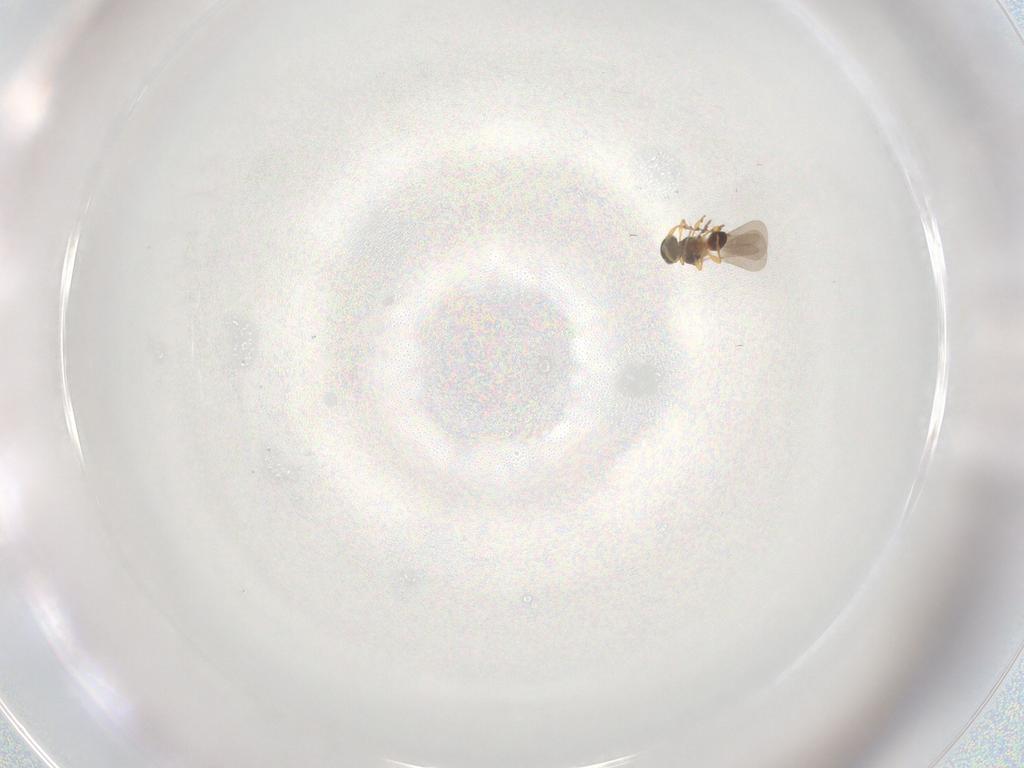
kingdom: Animalia
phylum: Arthropoda
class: Insecta
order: Hymenoptera
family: Platygastridae
